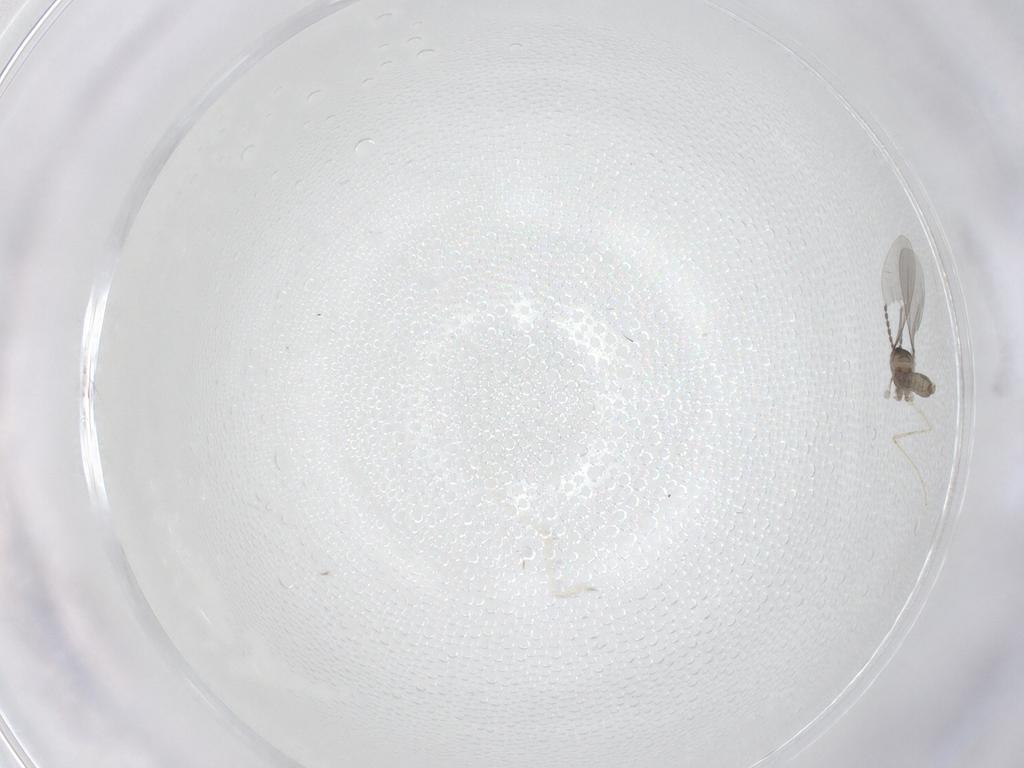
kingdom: Animalia
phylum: Arthropoda
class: Insecta
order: Diptera
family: Cecidomyiidae
